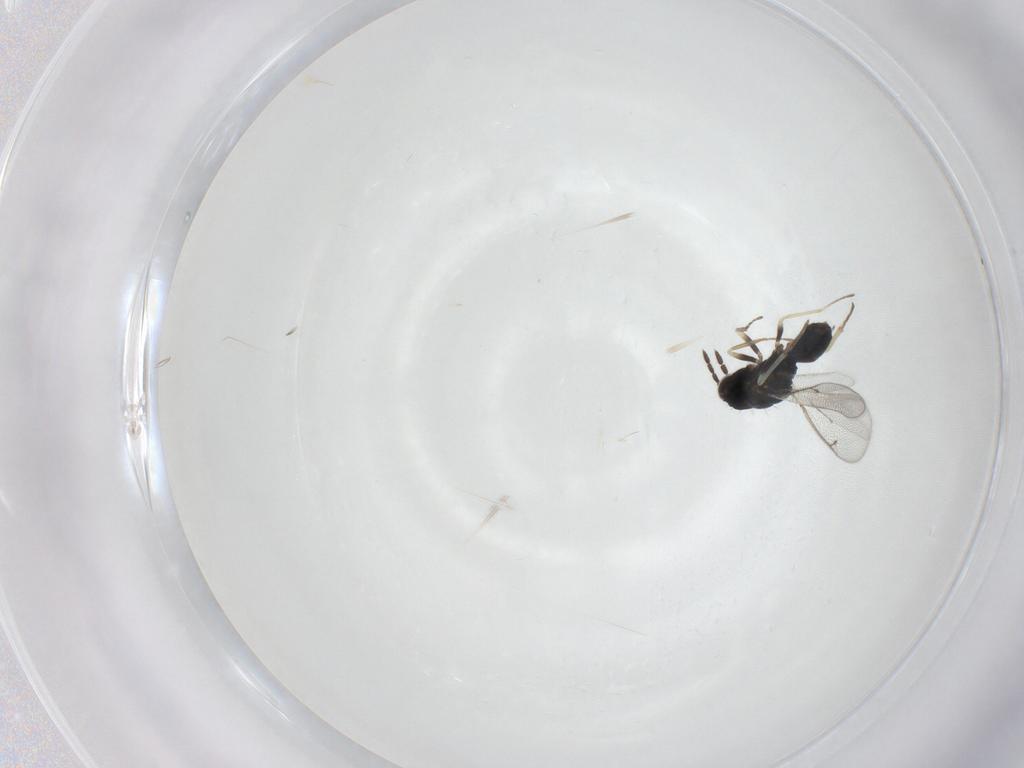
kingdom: Animalia
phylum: Arthropoda
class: Insecta
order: Hymenoptera
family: Eulophidae
